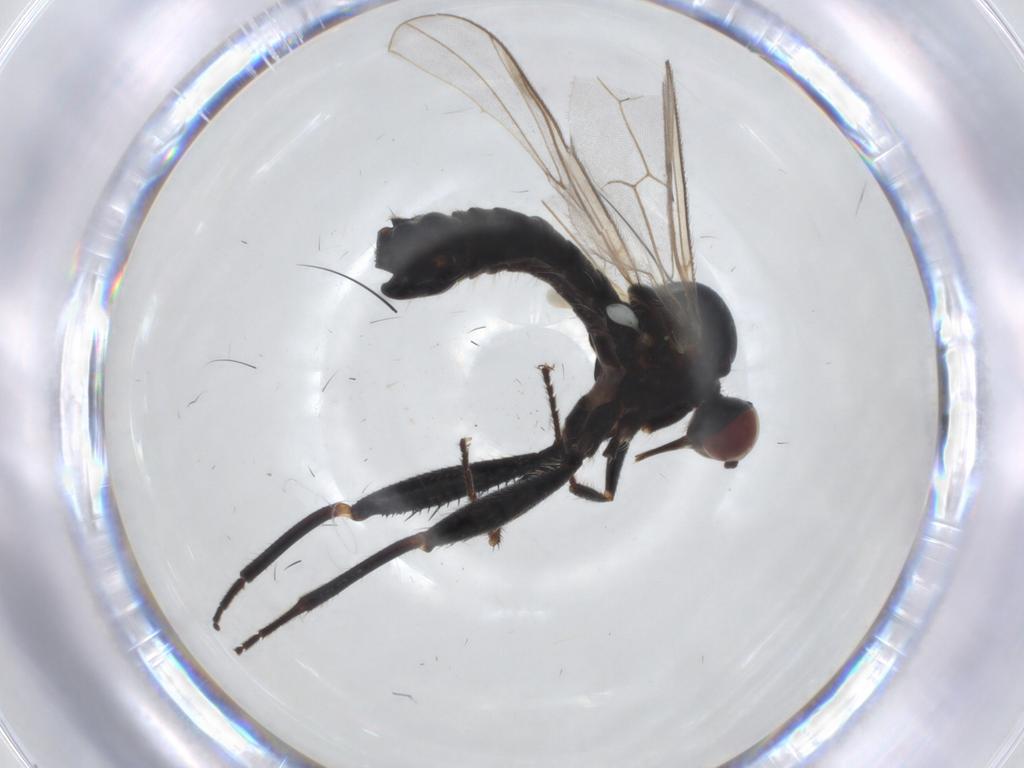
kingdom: Animalia
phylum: Arthropoda
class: Insecta
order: Diptera
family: Hybotidae
